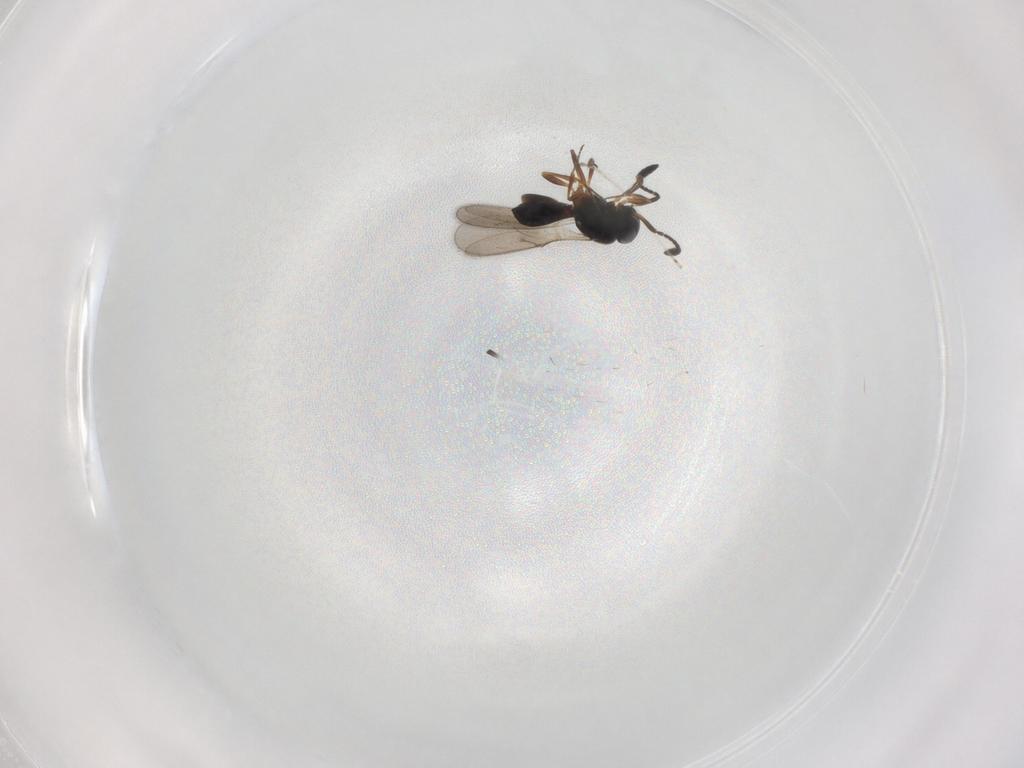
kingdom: Animalia
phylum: Arthropoda
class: Insecta
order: Hymenoptera
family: Scelionidae
